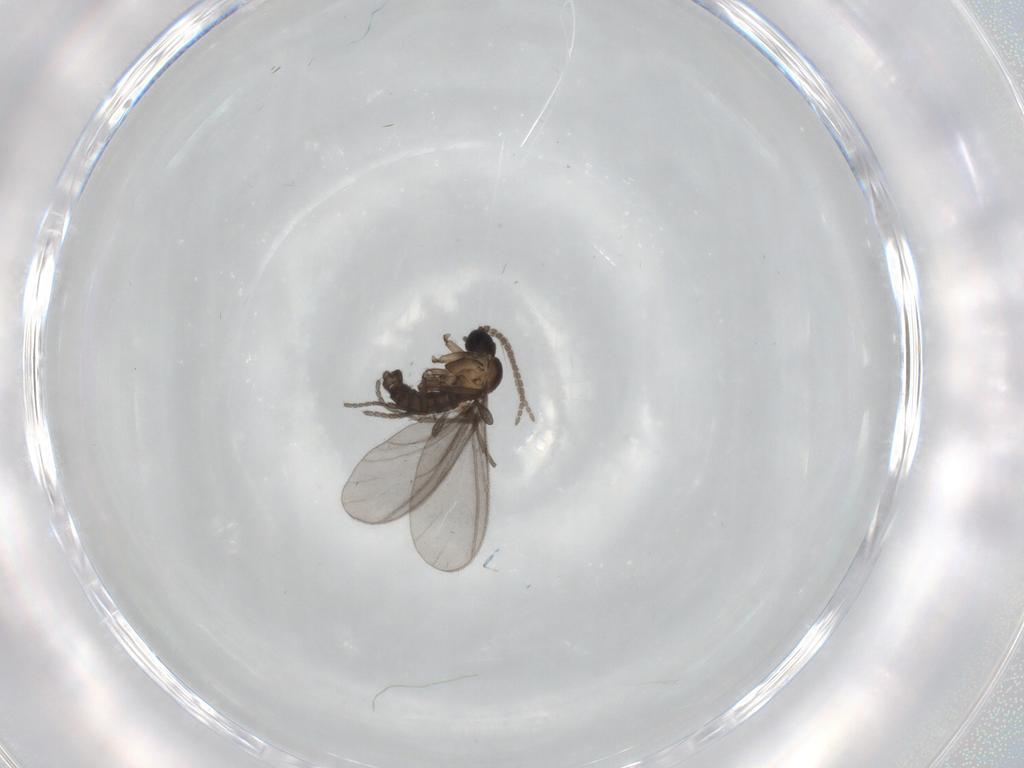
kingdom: Animalia
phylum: Arthropoda
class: Insecta
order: Diptera
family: Sciaridae
